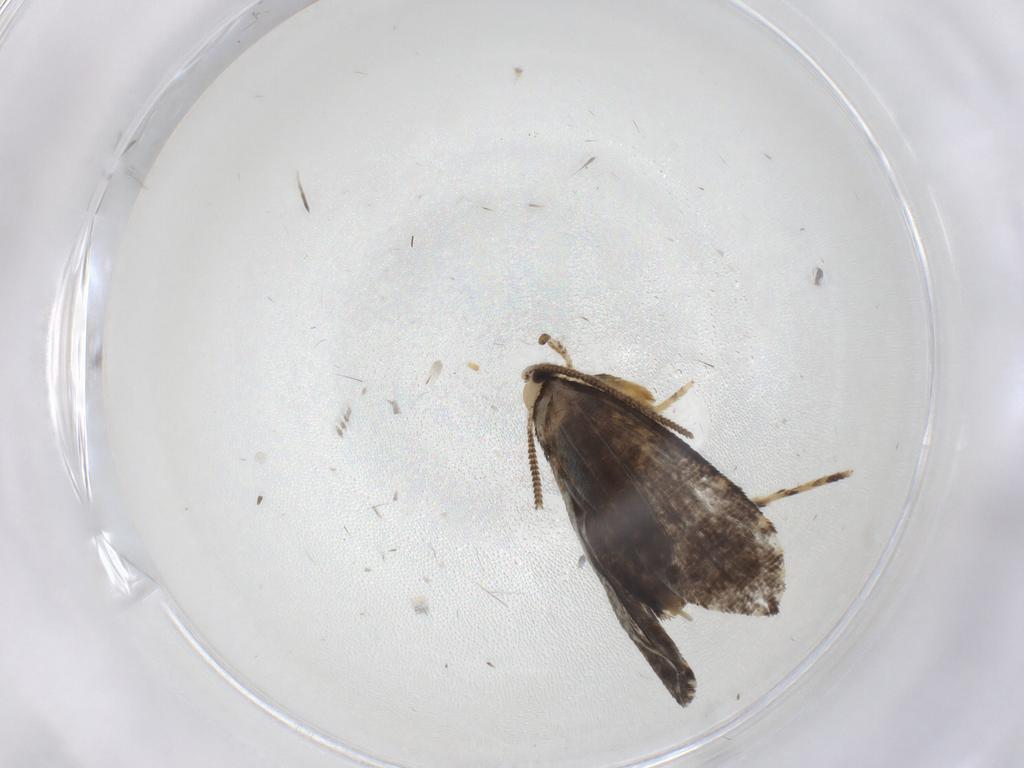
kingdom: Animalia
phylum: Arthropoda
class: Insecta
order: Lepidoptera
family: Tineidae
